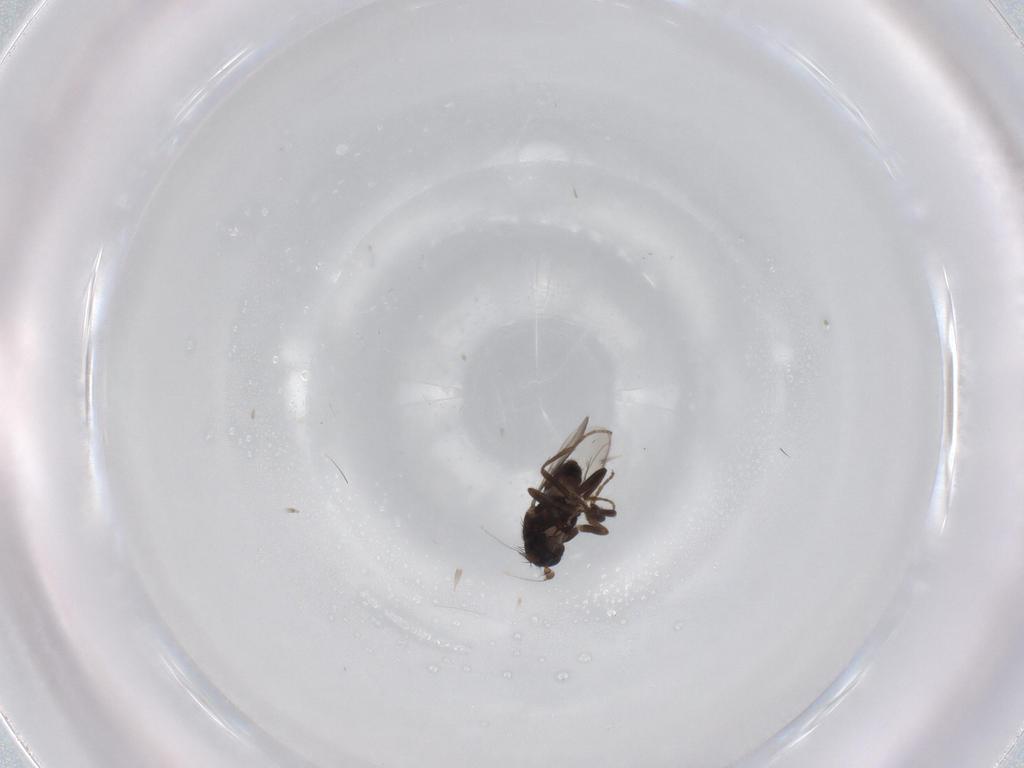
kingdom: Animalia
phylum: Arthropoda
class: Insecta
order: Diptera
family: Sphaeroceridae
